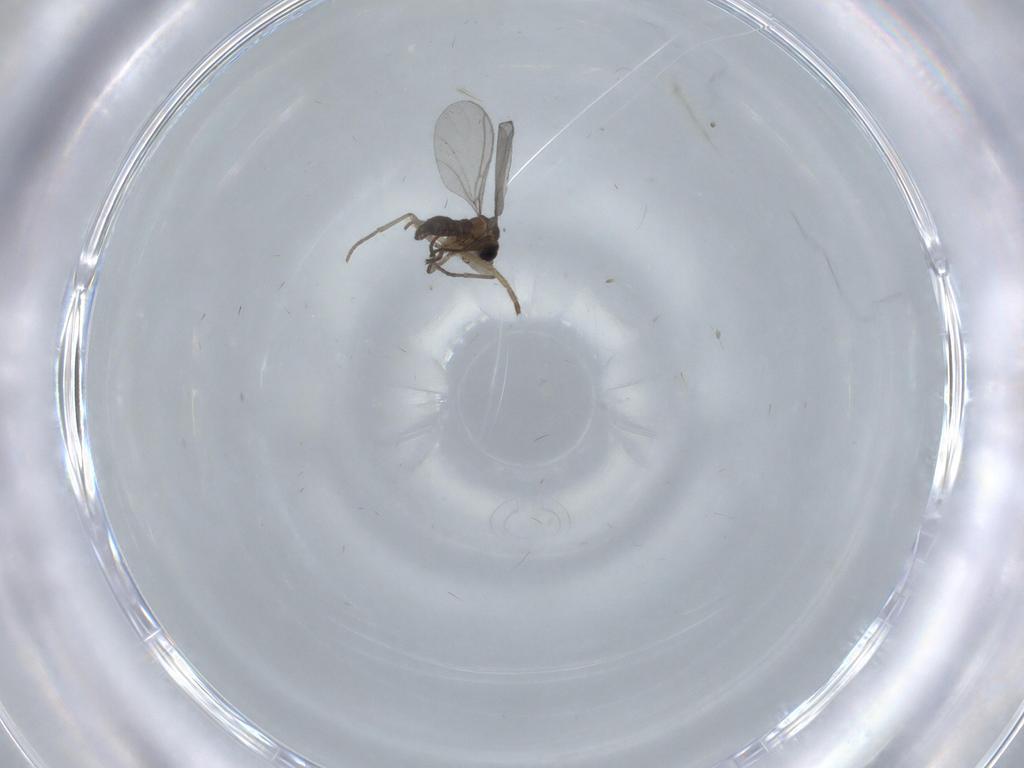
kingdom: Animalia
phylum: Arthropoda
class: Insecta
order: Diptera
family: Cecidomyiidae
